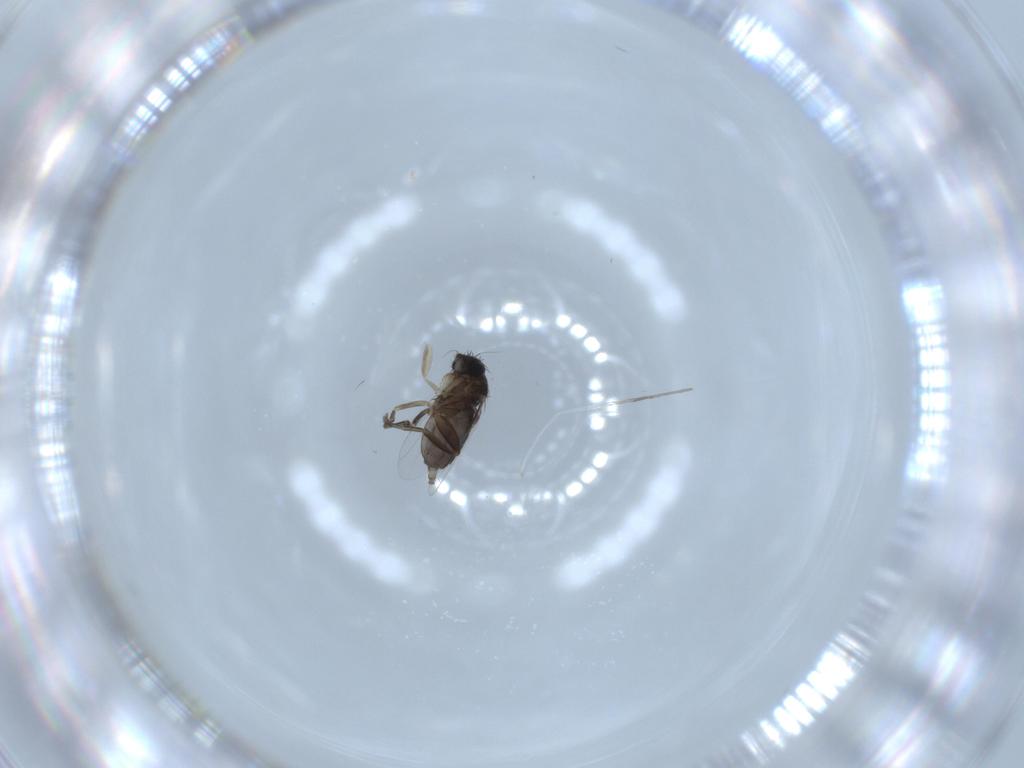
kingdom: Animalia
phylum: Arthropoda
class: Insecta
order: Diptera
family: Phoridae
